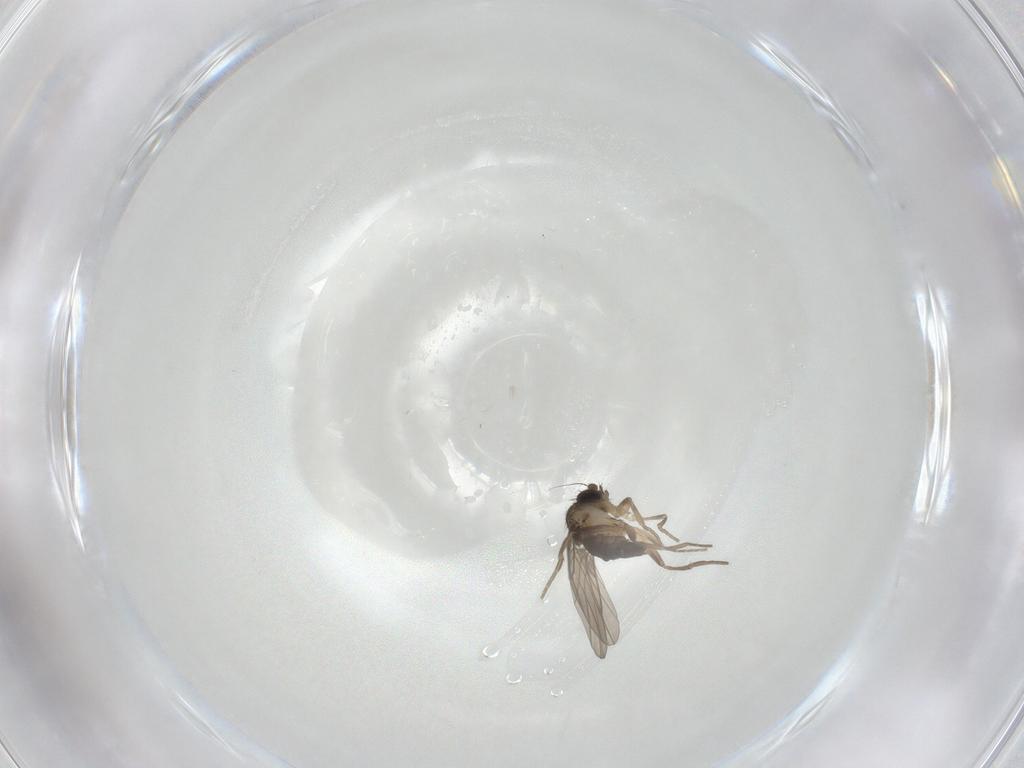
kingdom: Animalia
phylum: Arthropoda
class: Insecta
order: Diptera
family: Phoridae
